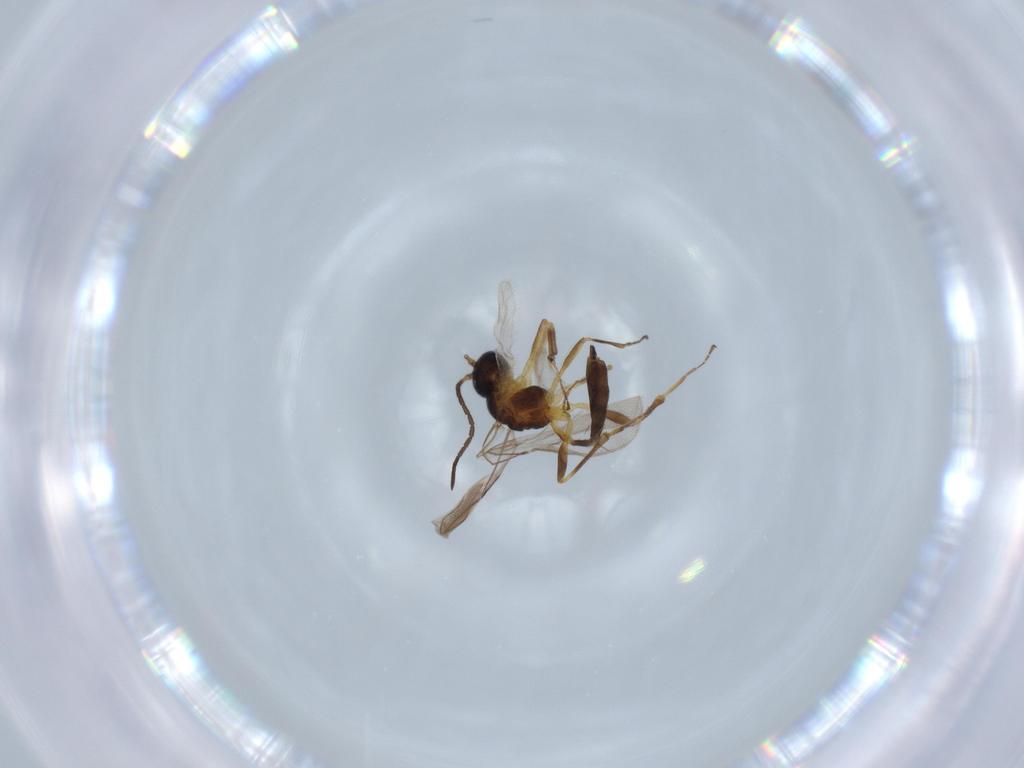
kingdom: Animalia
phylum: Arthropoda
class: Insecta
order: Hymenoptera
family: Braconidae
